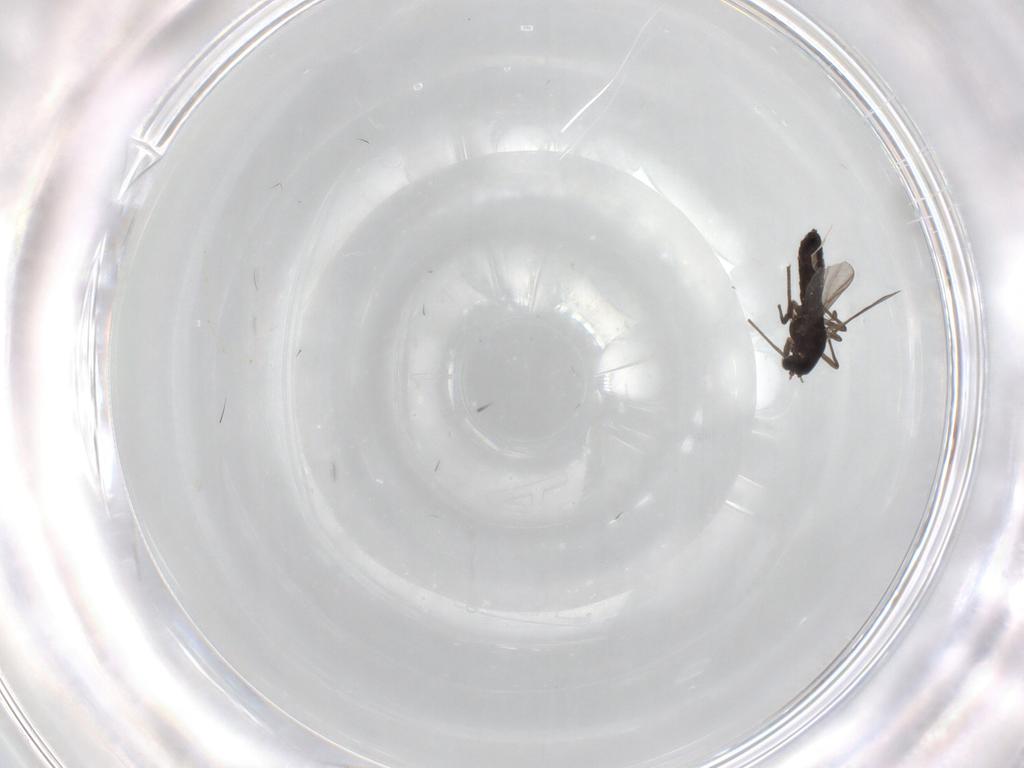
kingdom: Animalia
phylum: Arthropoda
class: Insecta
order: Diptera
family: Chironomidae
